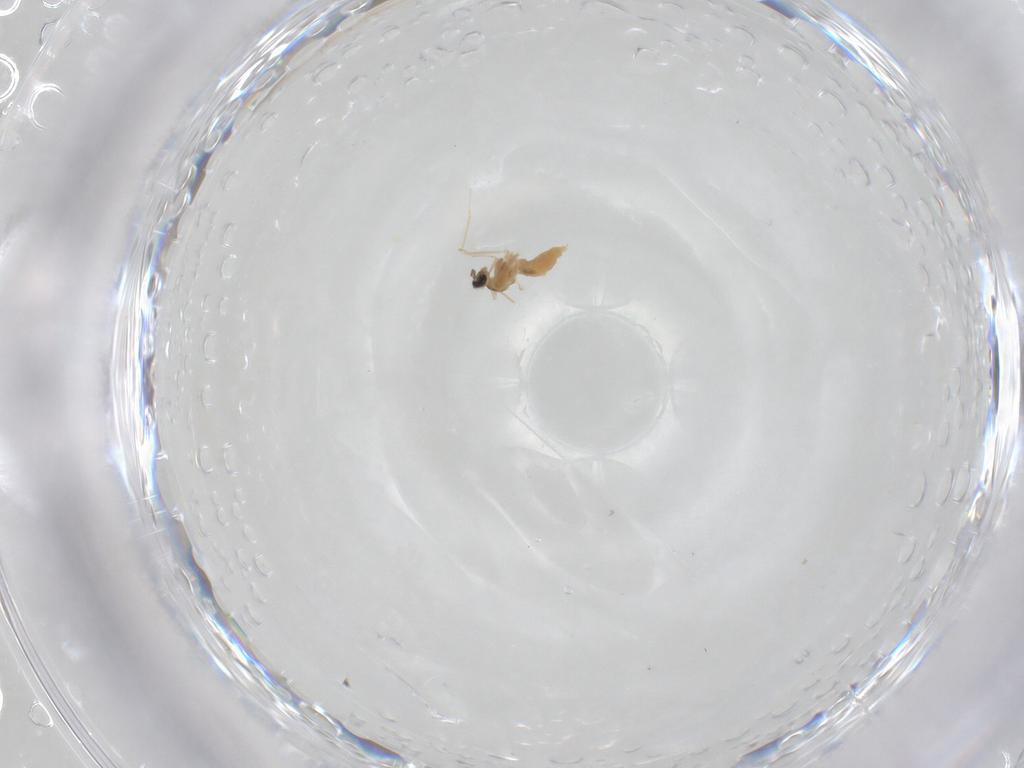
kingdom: Animalia
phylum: Arthropoda
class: Insecta
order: Diptera
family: Cecidomyiidae
